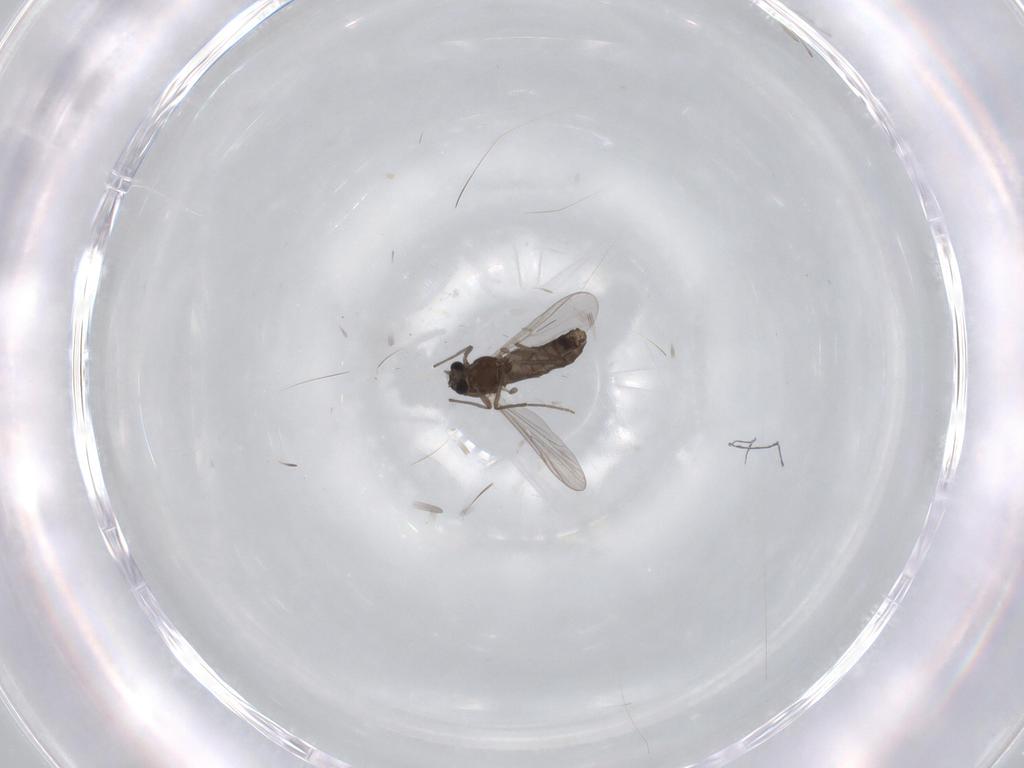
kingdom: Animalia
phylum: Arthropoda
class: Insecta
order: Diptera
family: Chironomidae
